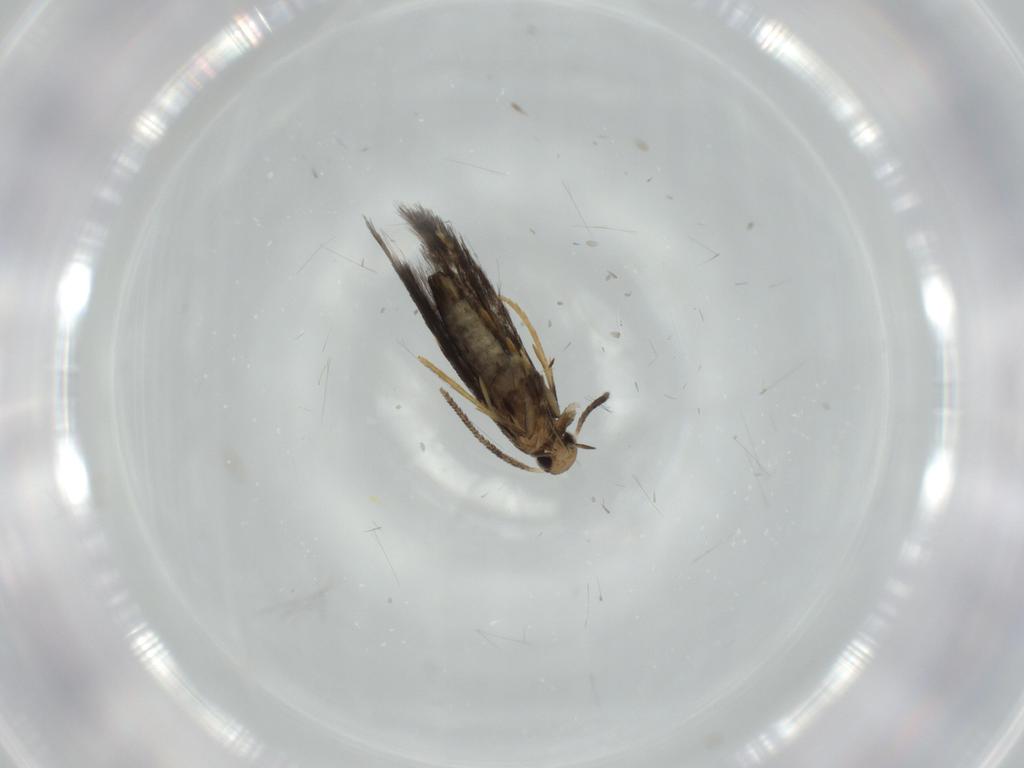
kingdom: Animalia
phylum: Arthropoda
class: Insecta
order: Lepidoptera
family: Heliozelidae
